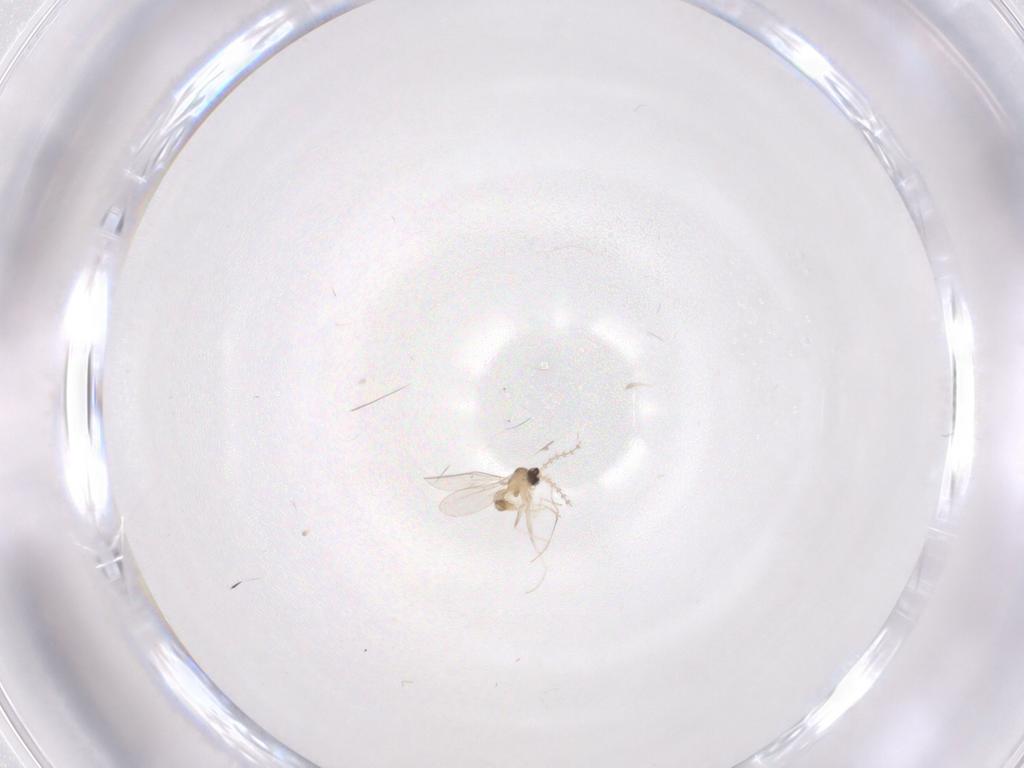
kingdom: Animalia
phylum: Arthropoda
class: Insecta
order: Diptera
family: Cecidomyiidae
